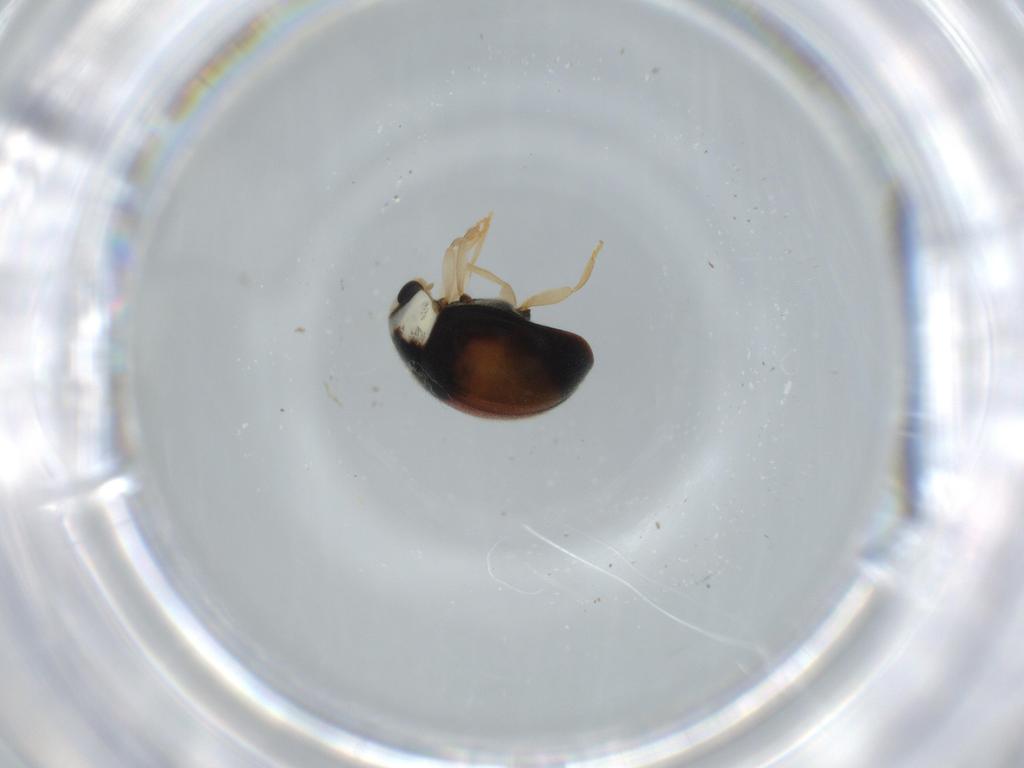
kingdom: Animalia
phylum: Arthropoda
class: Insecta
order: Coleoptera
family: Coccinellidae
